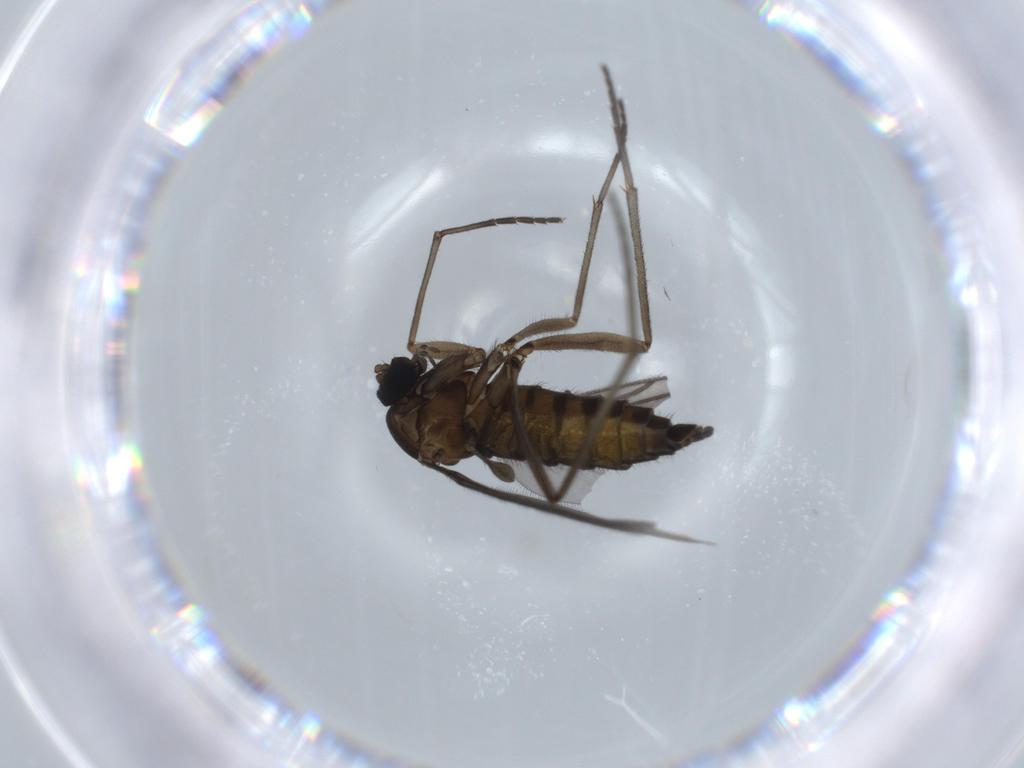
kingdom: Animalia
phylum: Arthropoda
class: Insecta
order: Diptera
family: Sciaridae
